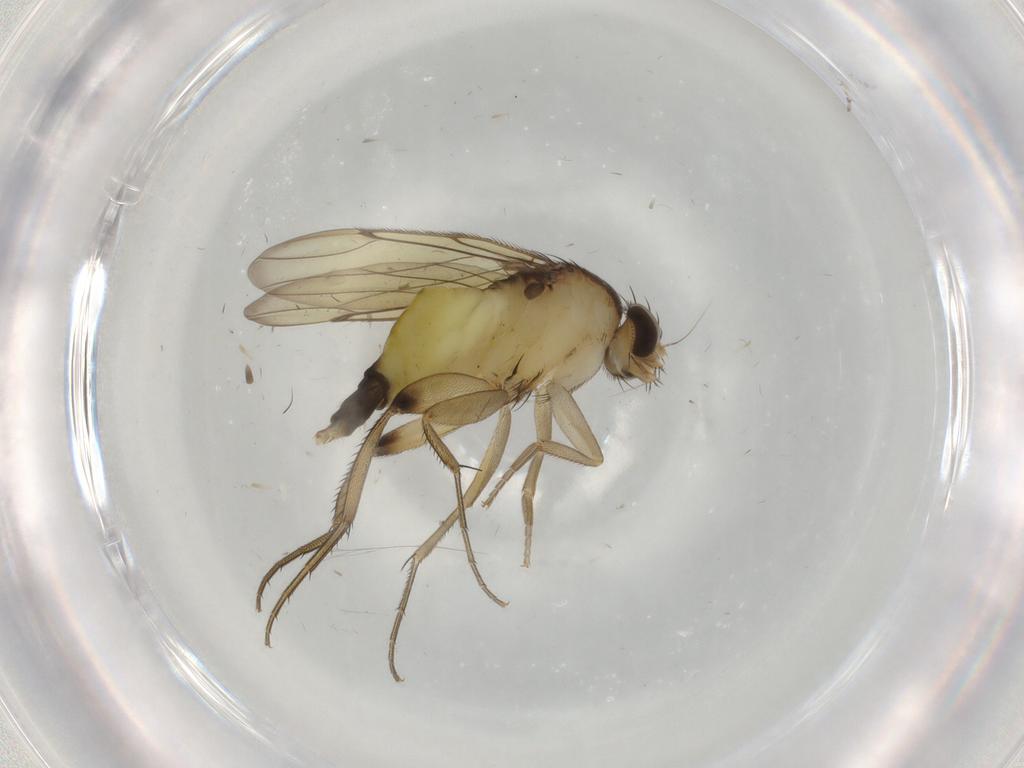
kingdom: Animalia
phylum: Arthropoda
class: Insecta
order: Diptera
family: Phoridae
